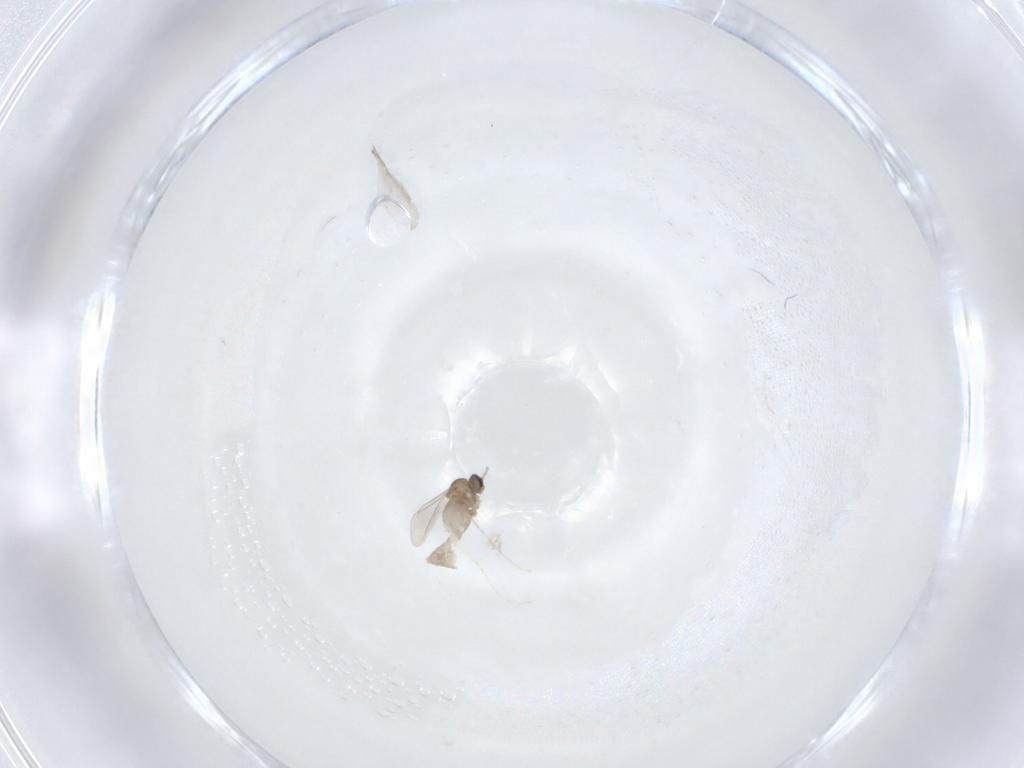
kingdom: Animalia
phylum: Arthropoda
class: Insecta
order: Diptera
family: Cecidomyiidae
